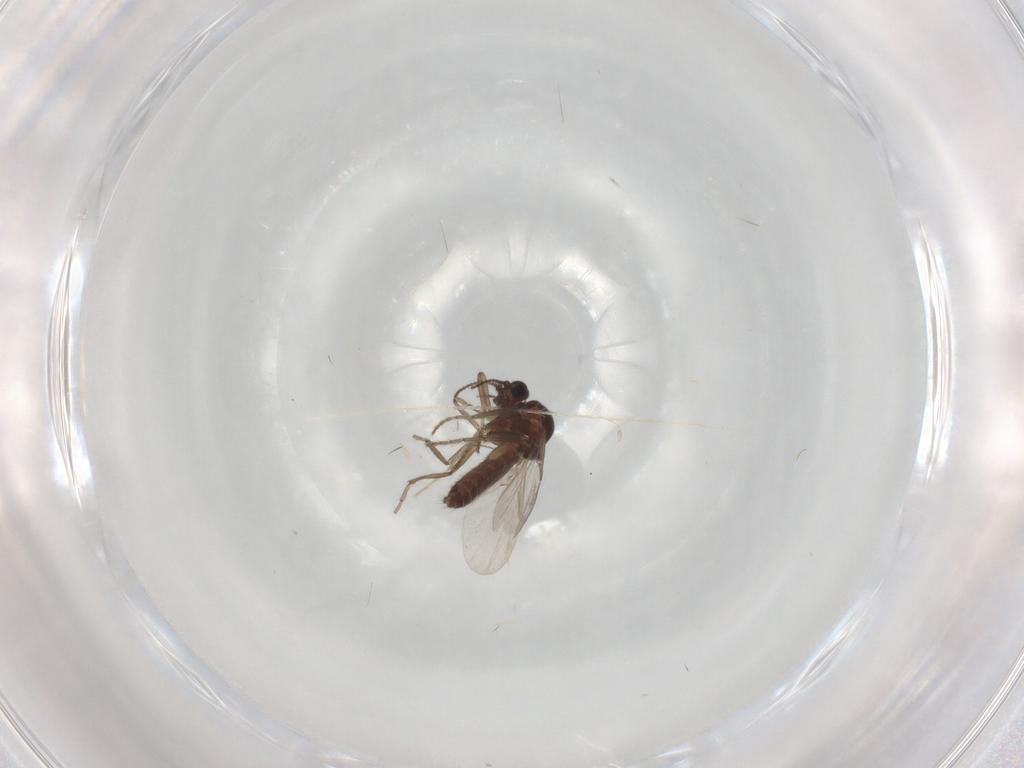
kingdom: Animalia
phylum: Arthropoda
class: Insecta
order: Diptera
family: Ceratopogonidae
